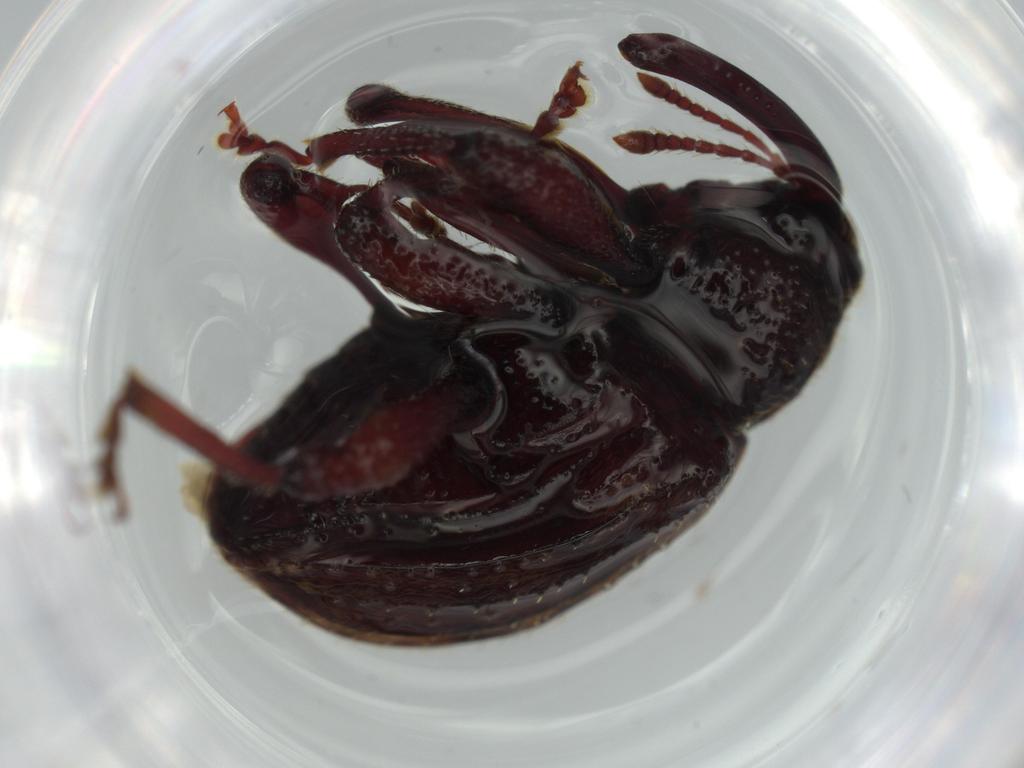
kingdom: Animalia
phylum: Arthropoda
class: Insecta
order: Coleoptera
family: Curculionidae
